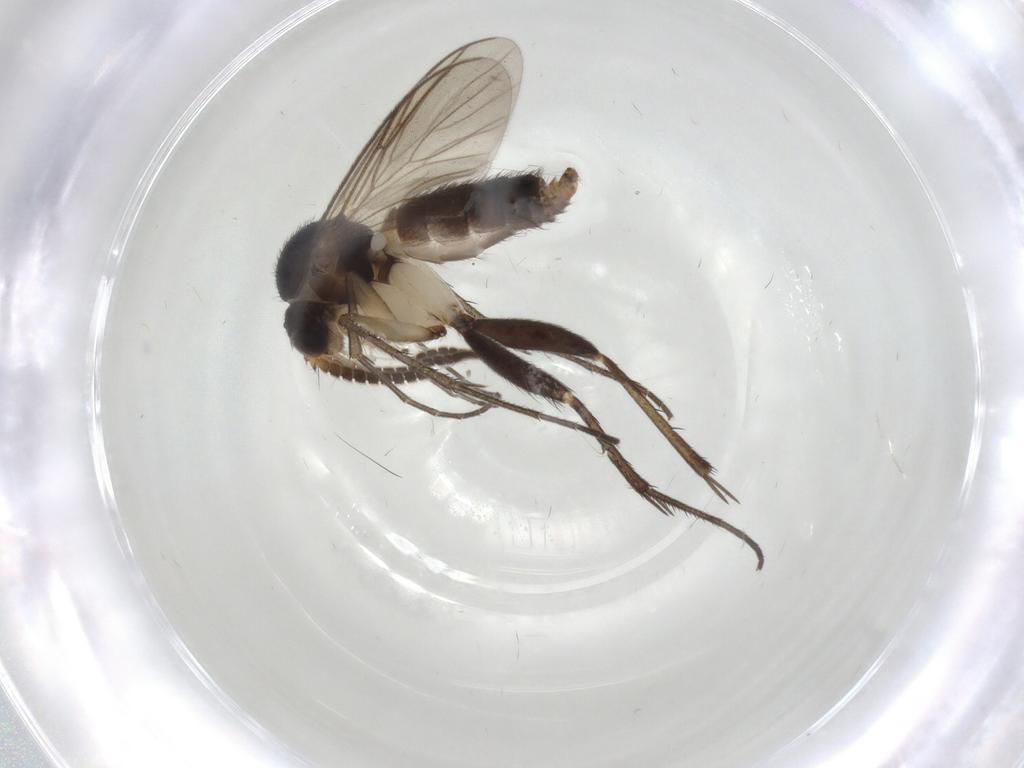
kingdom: Animalia
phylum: Arthropoda
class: Insecta
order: Diptera
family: Mycetophilidae
